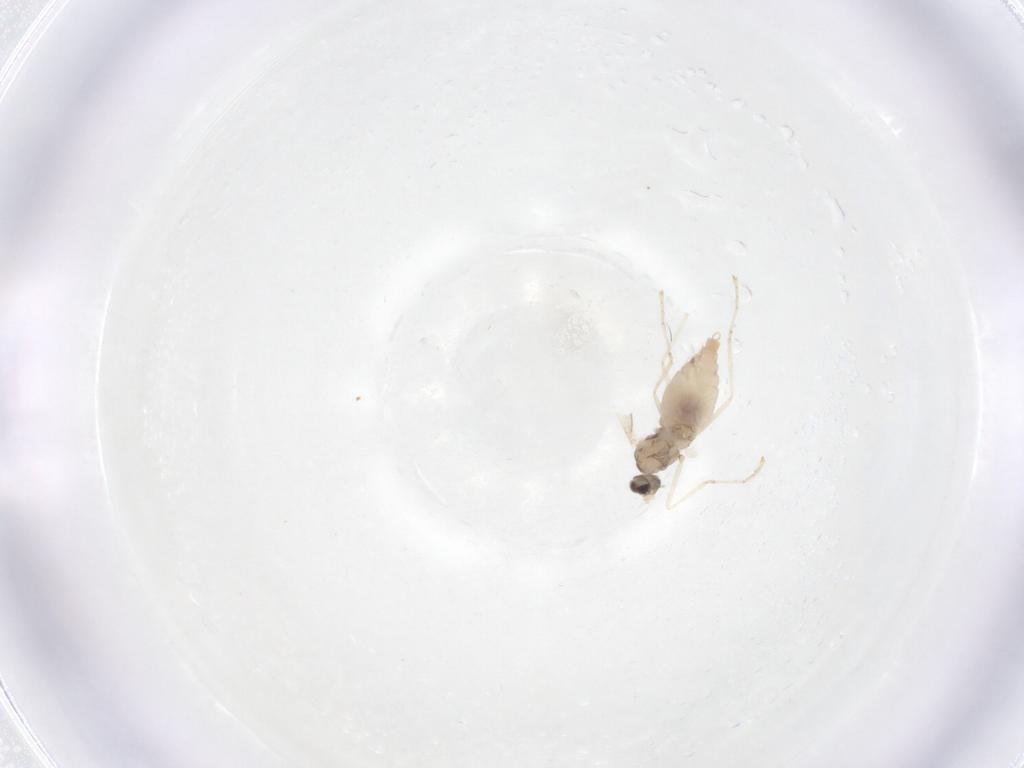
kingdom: Animalia
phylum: Arthropoda
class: Insecta
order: Diptera
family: Cecidomyiidae
